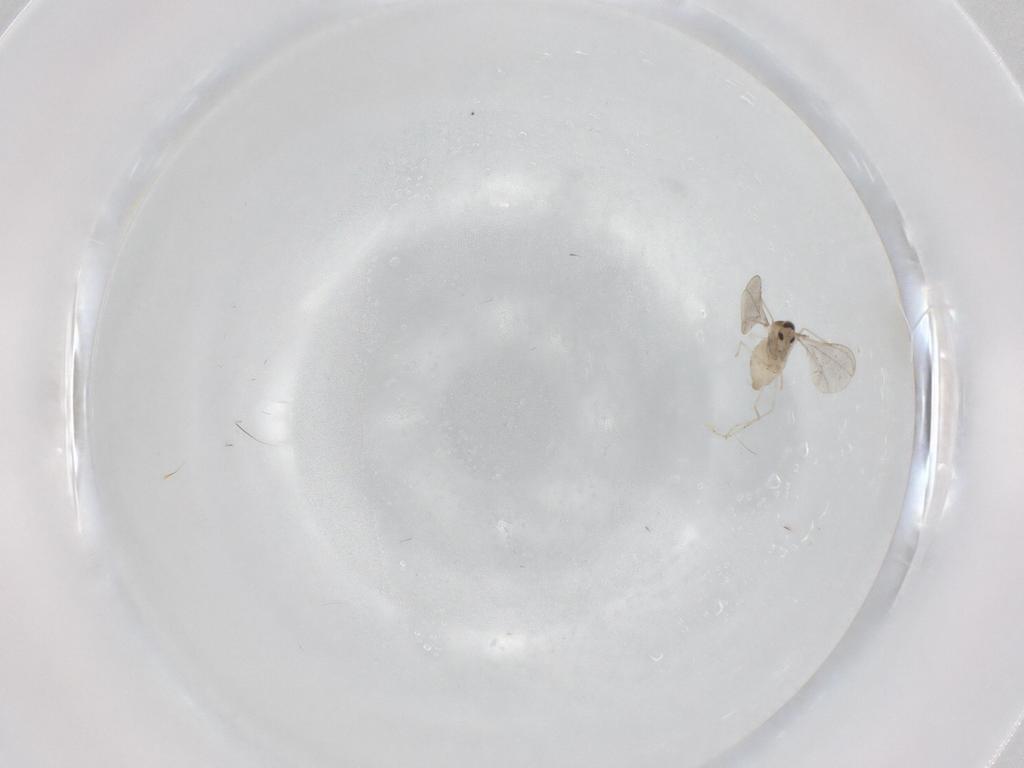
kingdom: Animalia
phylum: Arthropoda
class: Insecta
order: Diptera
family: Cecidomyiidae
